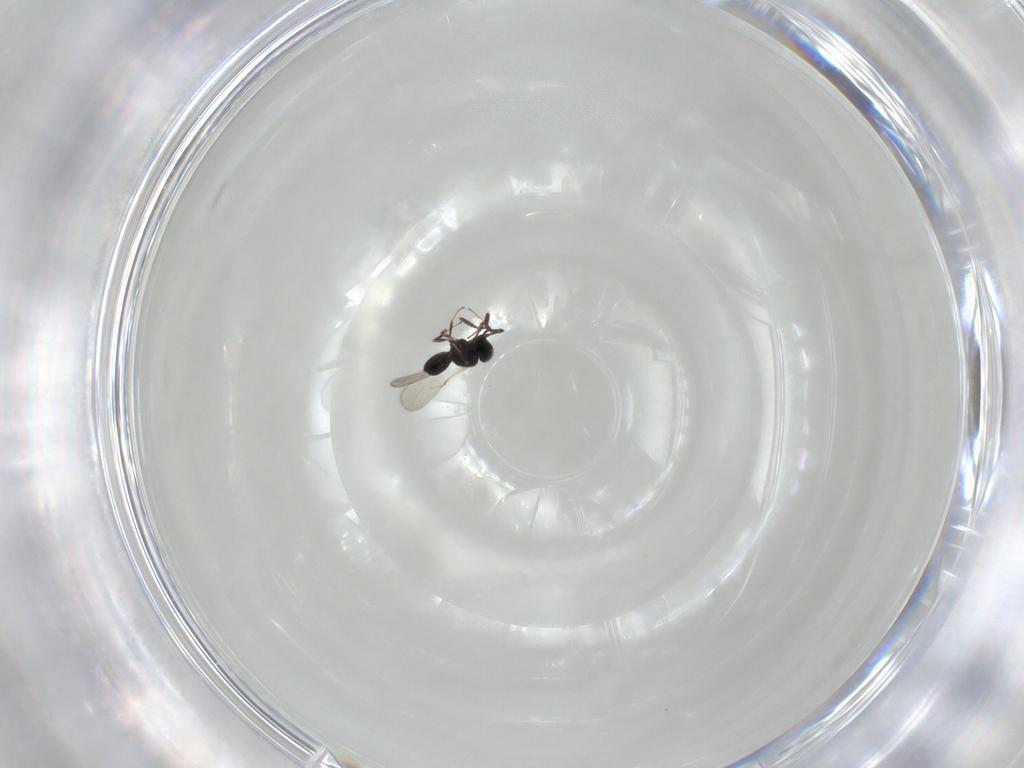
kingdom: Animalia
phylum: Arthropoda
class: Insecta
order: Hymenoptera
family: Scelionidae
